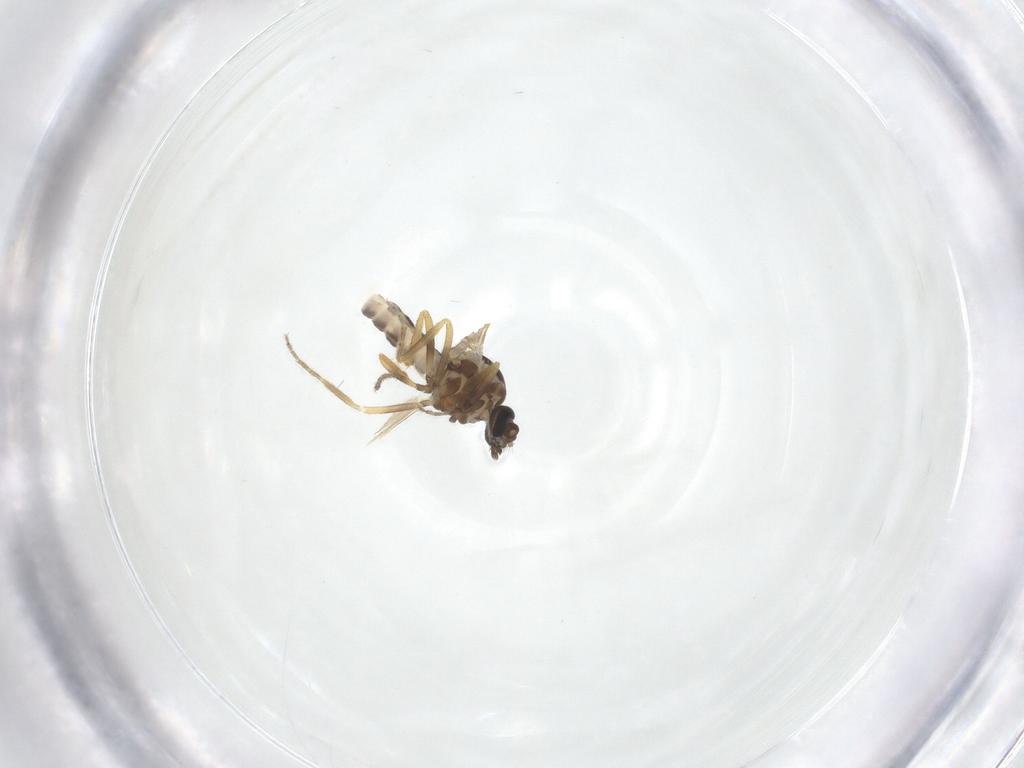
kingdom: Animalia
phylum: Arthropoda
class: Insecta
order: Diptera
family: Ceratopogonidae
